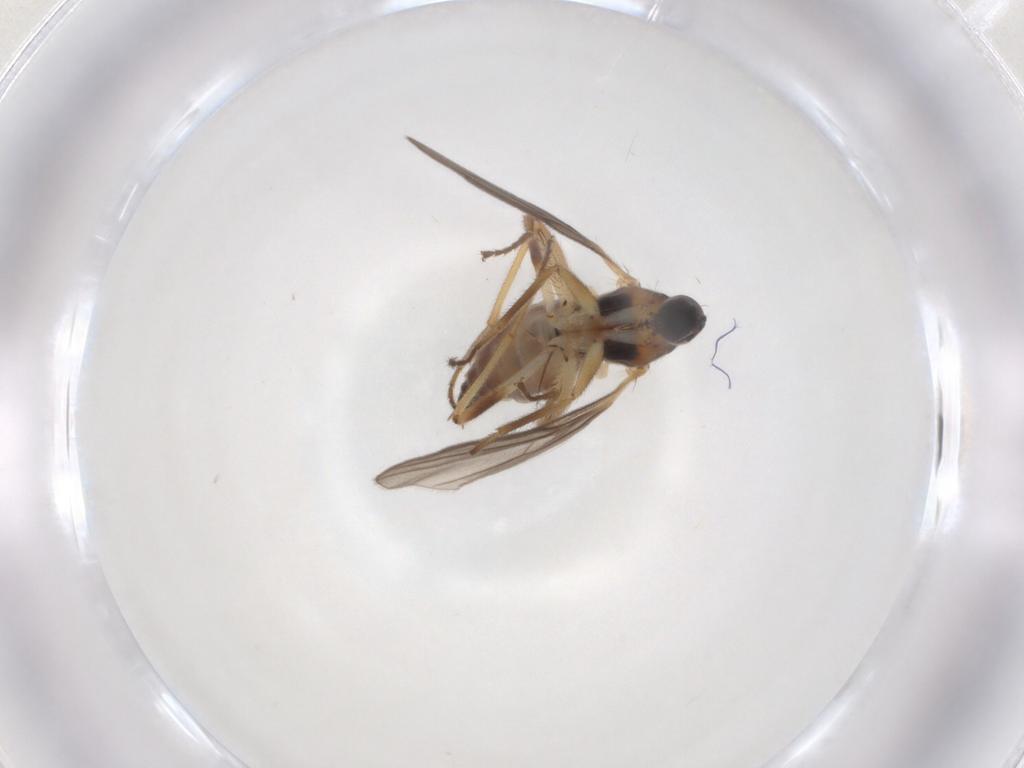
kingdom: Animalia
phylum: Arthropoda
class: Insecta
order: Diptera
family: Hybotidae
